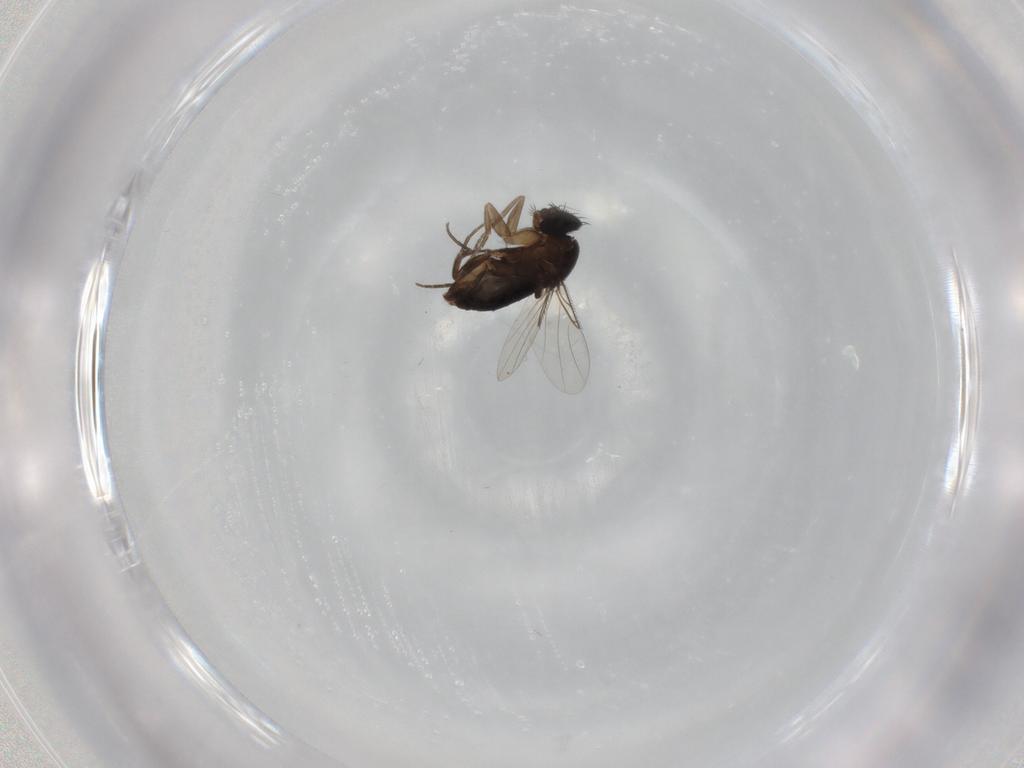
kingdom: Animalia
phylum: Arthropoda
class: Insecta
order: Diptera
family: Phoridae
